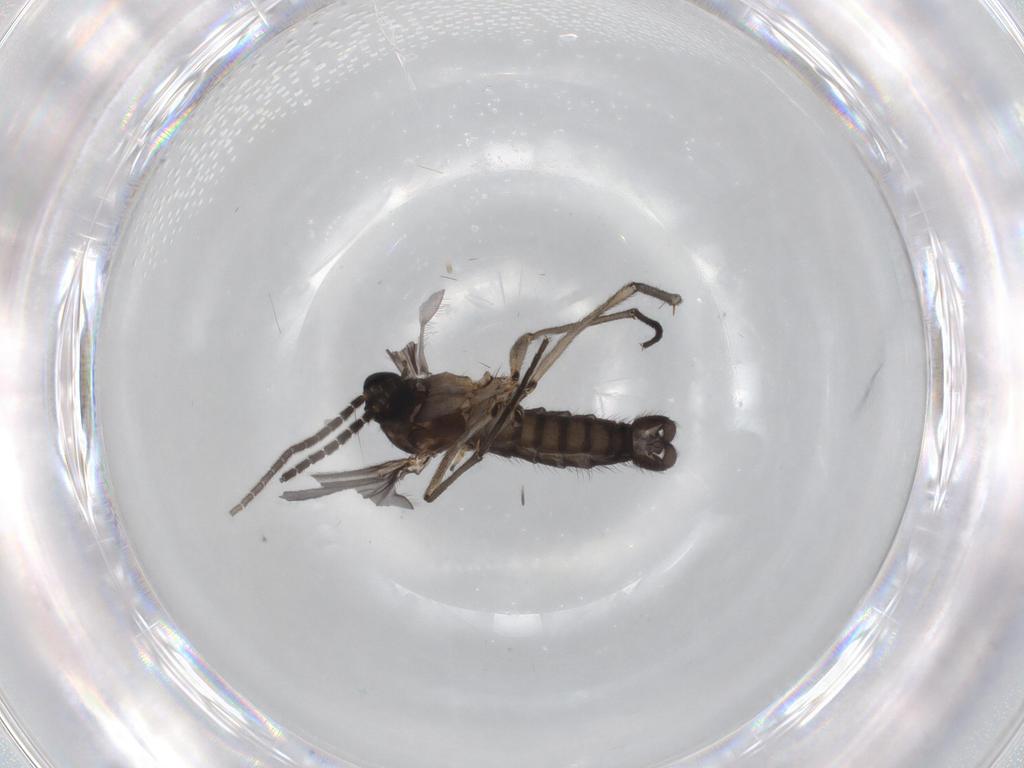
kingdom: Animalia
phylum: Arthropoda
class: Insecta
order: Diptera
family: Sciaridae
